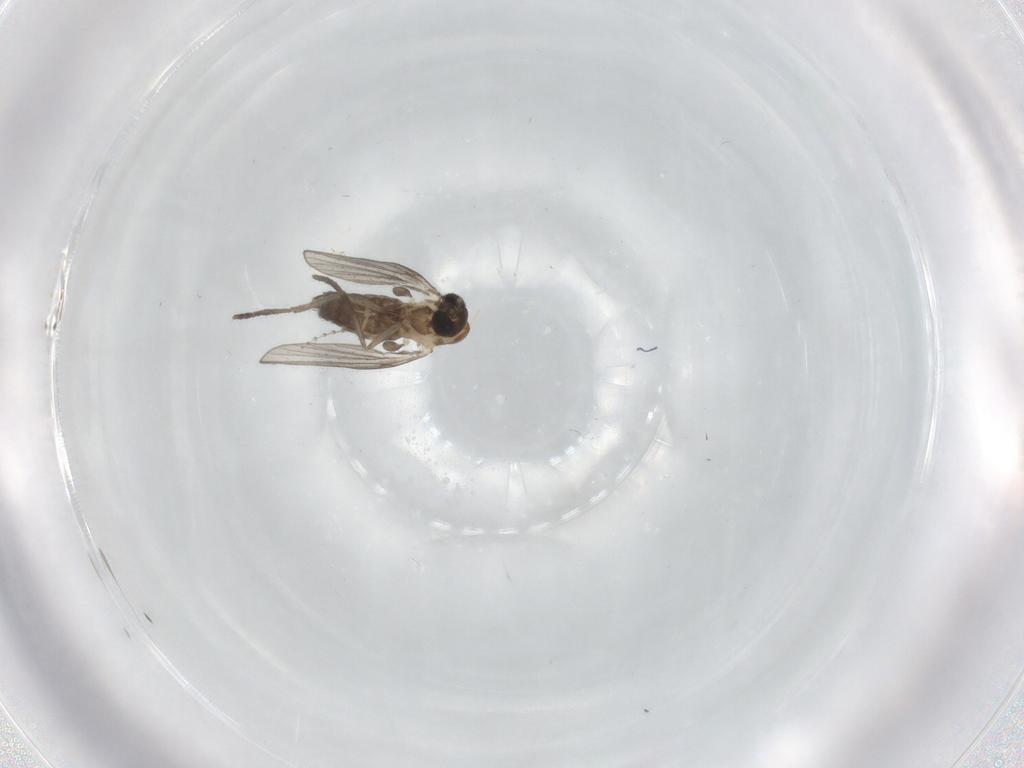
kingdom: Animalia
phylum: Arthropoda
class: Insecta
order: Diptera
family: Psychodidae
